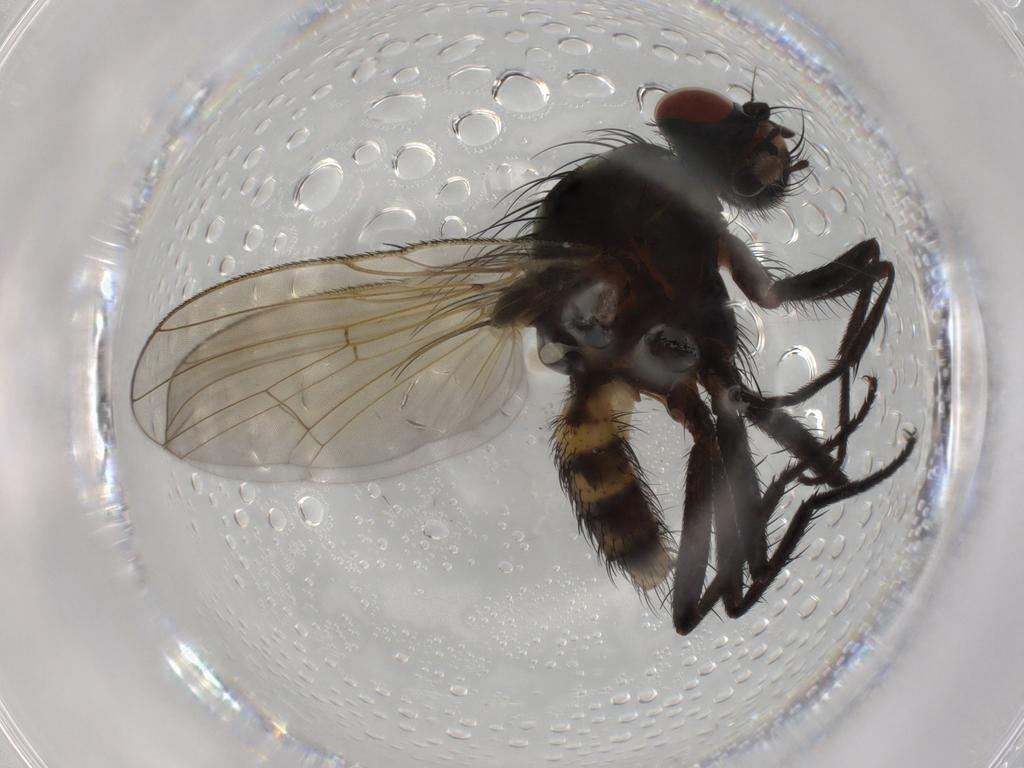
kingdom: Animalia
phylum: Arthropoda
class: Insecta
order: Diptera
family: Anthomyiidae
